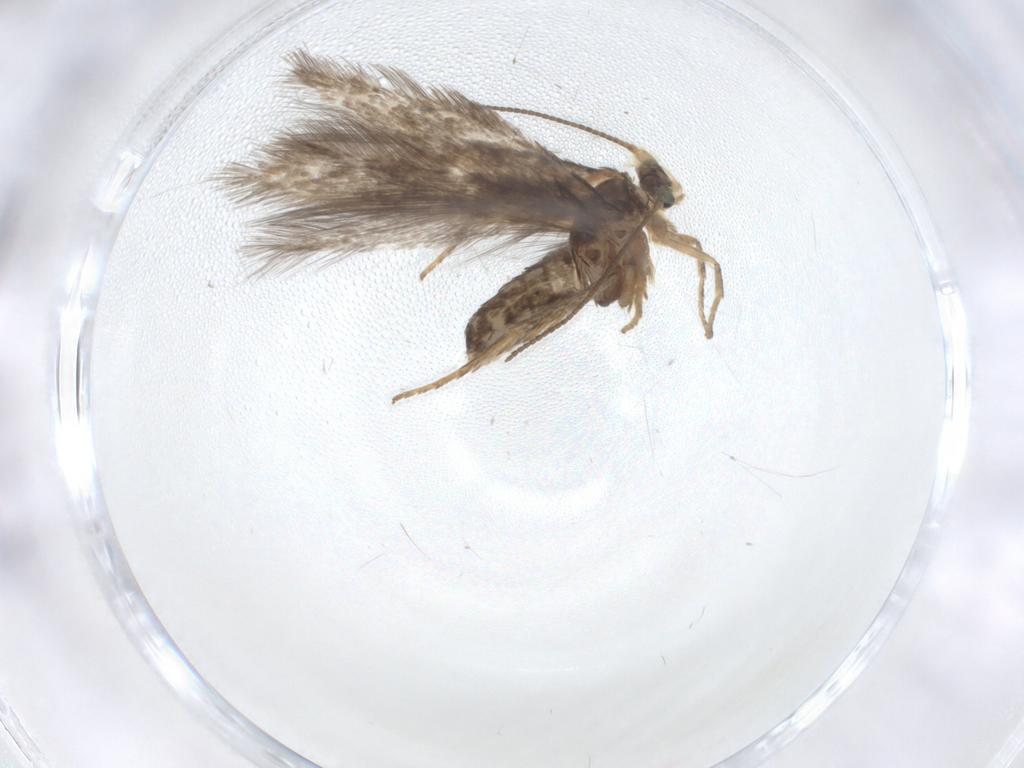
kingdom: Animalia
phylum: Arthropoda
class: Insecta
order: Lepidoptera
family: Nepticulidae
